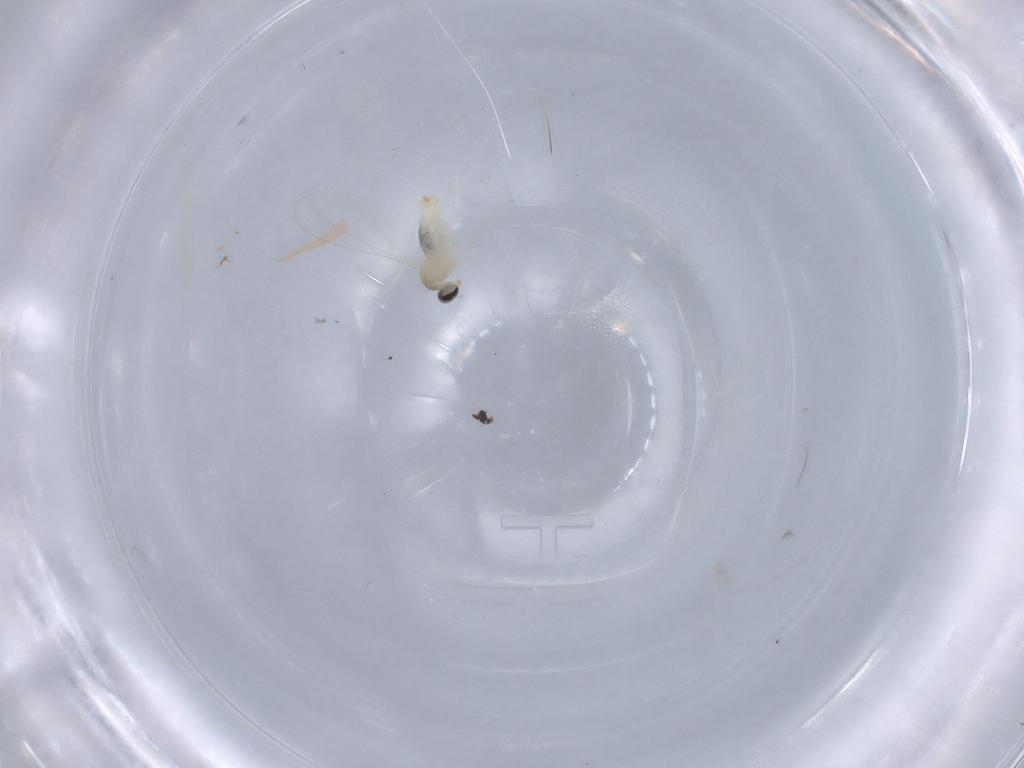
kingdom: Animalia
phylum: Arthropoda
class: Insecta
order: Diptera
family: Cecidomyiidae
